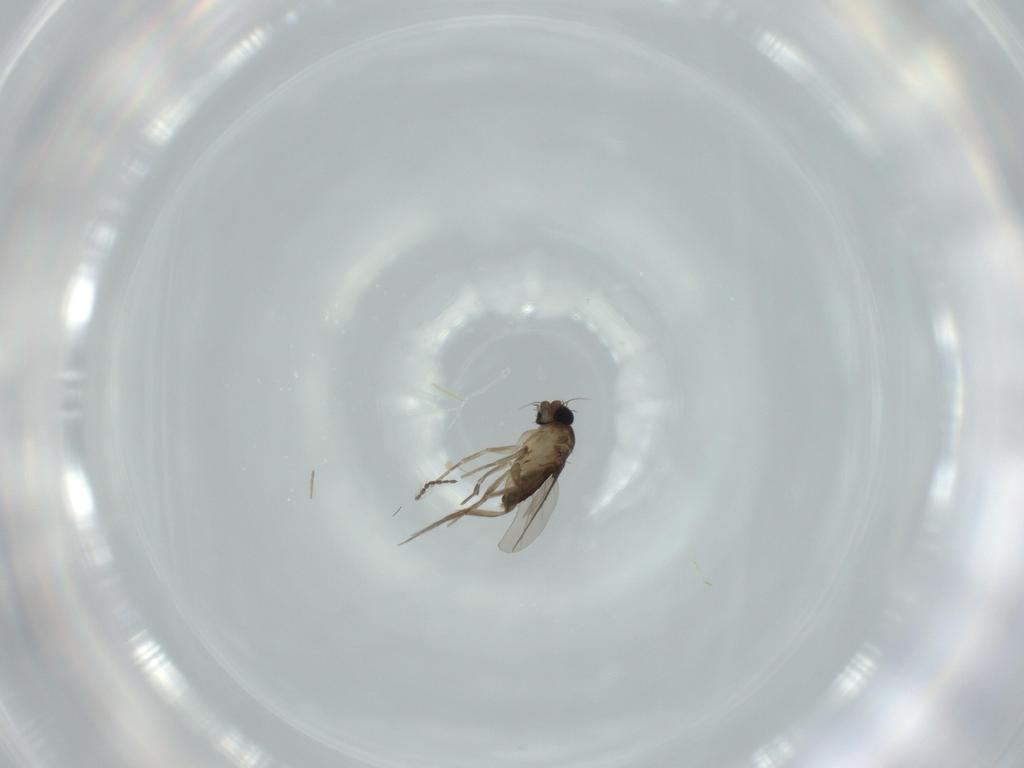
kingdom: Animalia
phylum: Arthropoda
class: Insecta
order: Diptera
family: Phoridae
